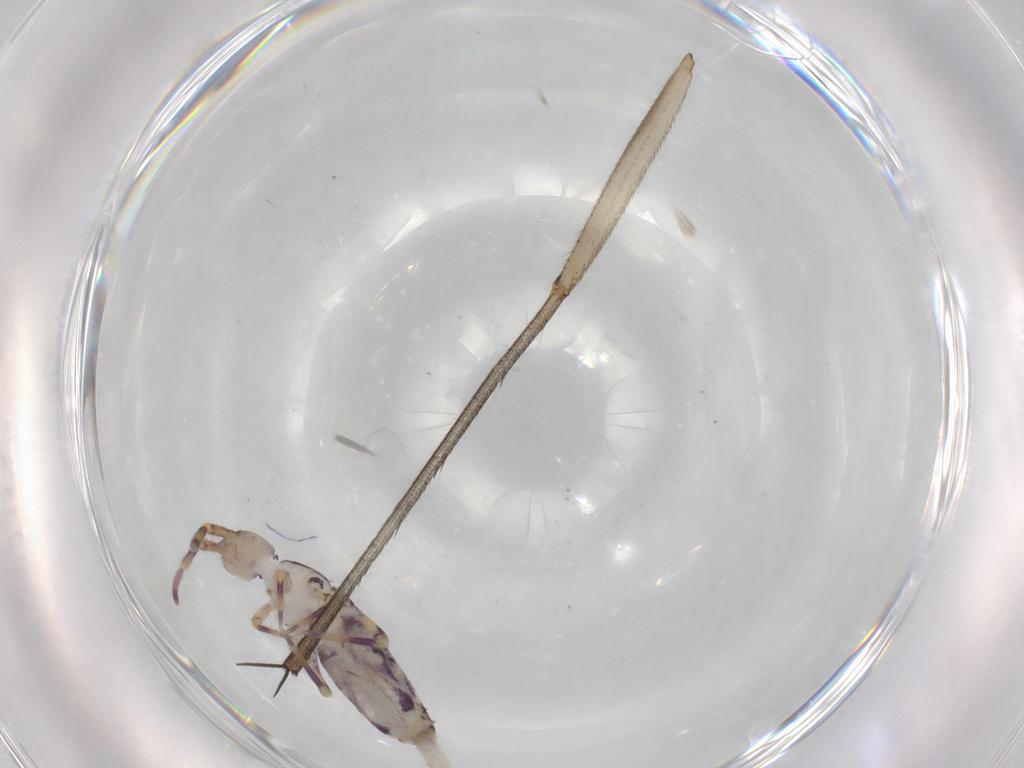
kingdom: Animalia
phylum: Arthropoda
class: Collembola
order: Entomobryomorpha
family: Entomobryidae
